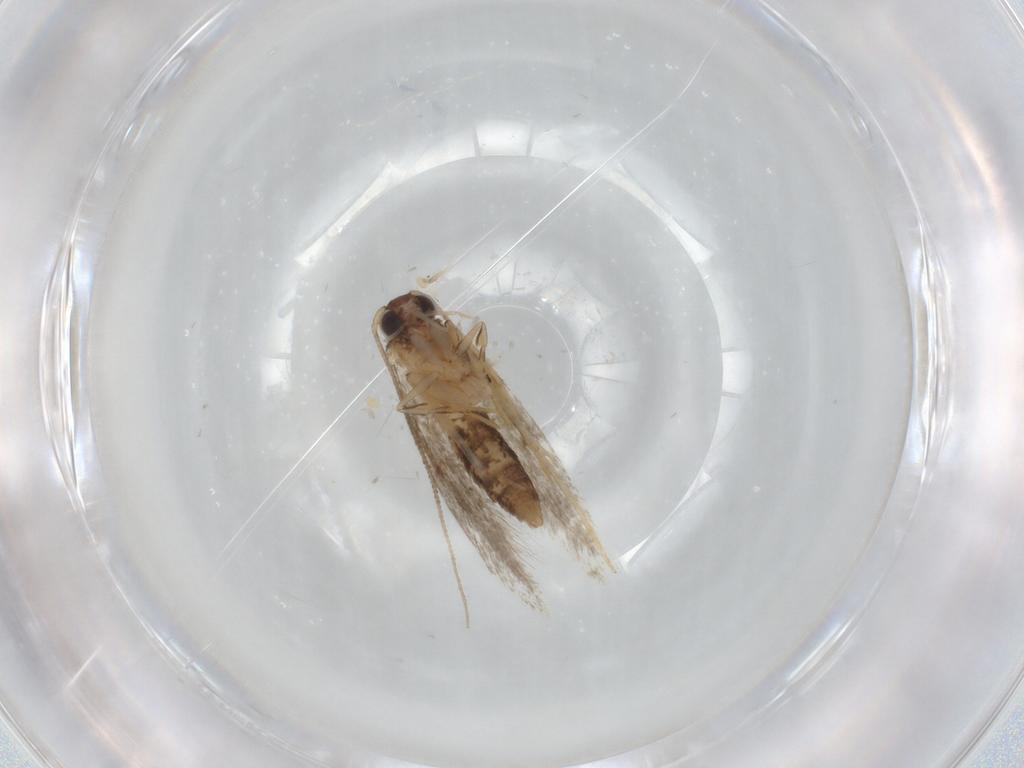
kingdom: Animalia
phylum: Arthropoda
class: Insecta
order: Lepidoptera
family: Tineidae
